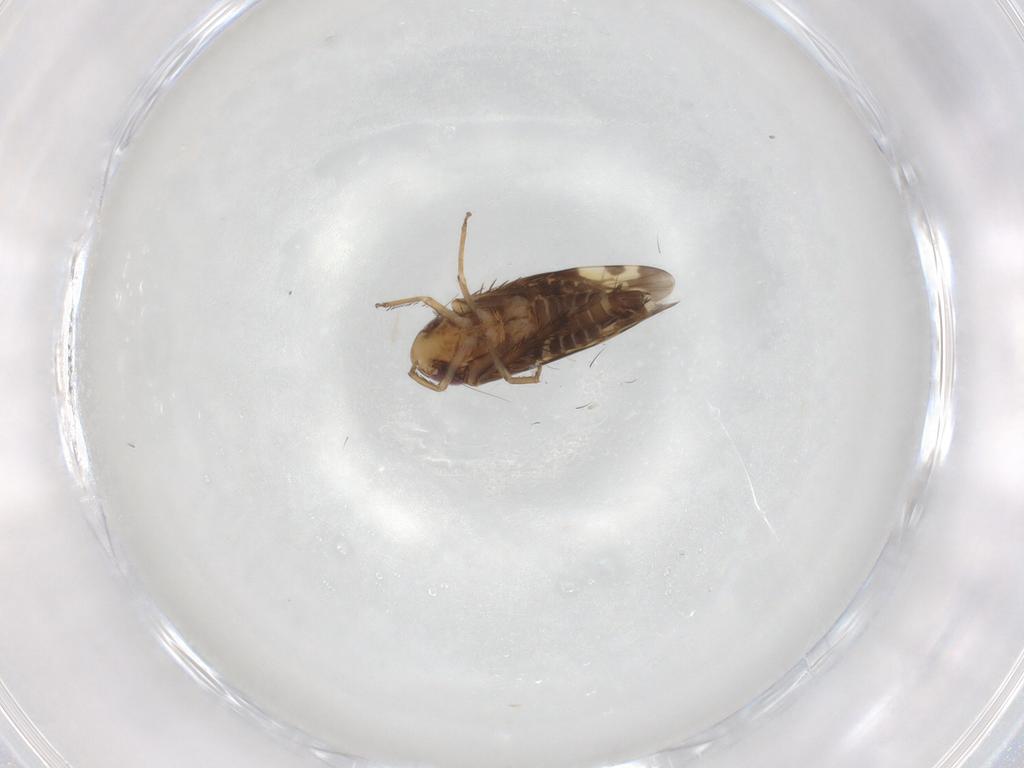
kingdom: Animalia
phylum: Arthropoda
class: Insecta
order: Hemiptera
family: Cicadellidae
